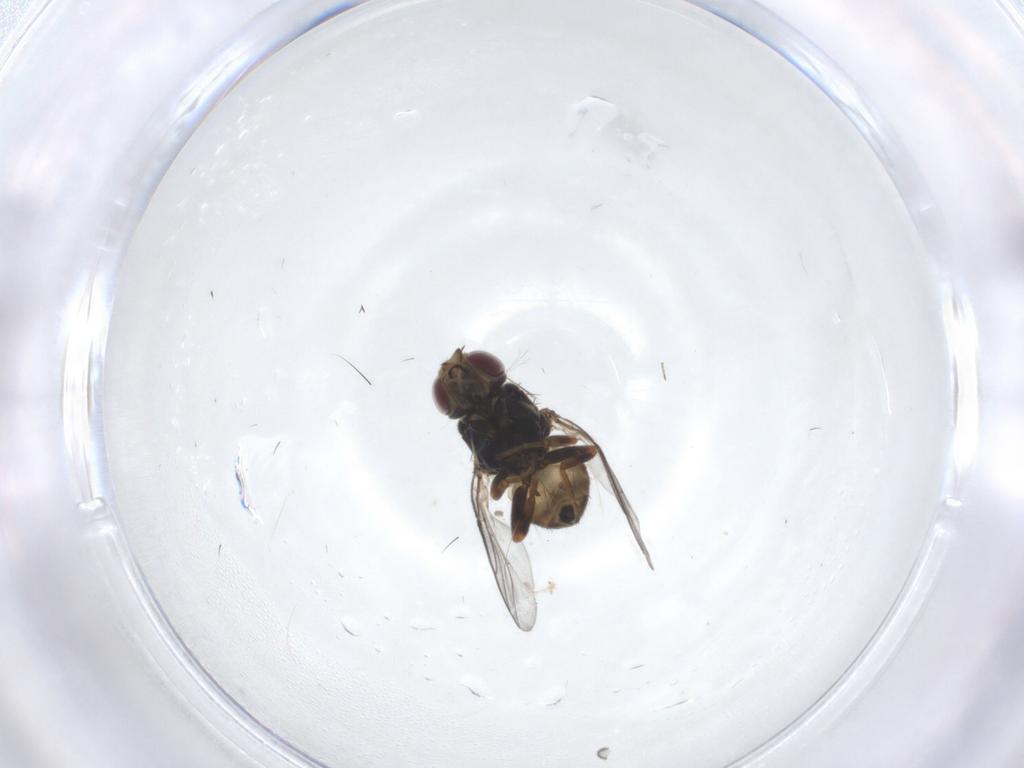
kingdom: Animalia
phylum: Arthropoda
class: Insecta
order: Diptera
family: Chloropidae
